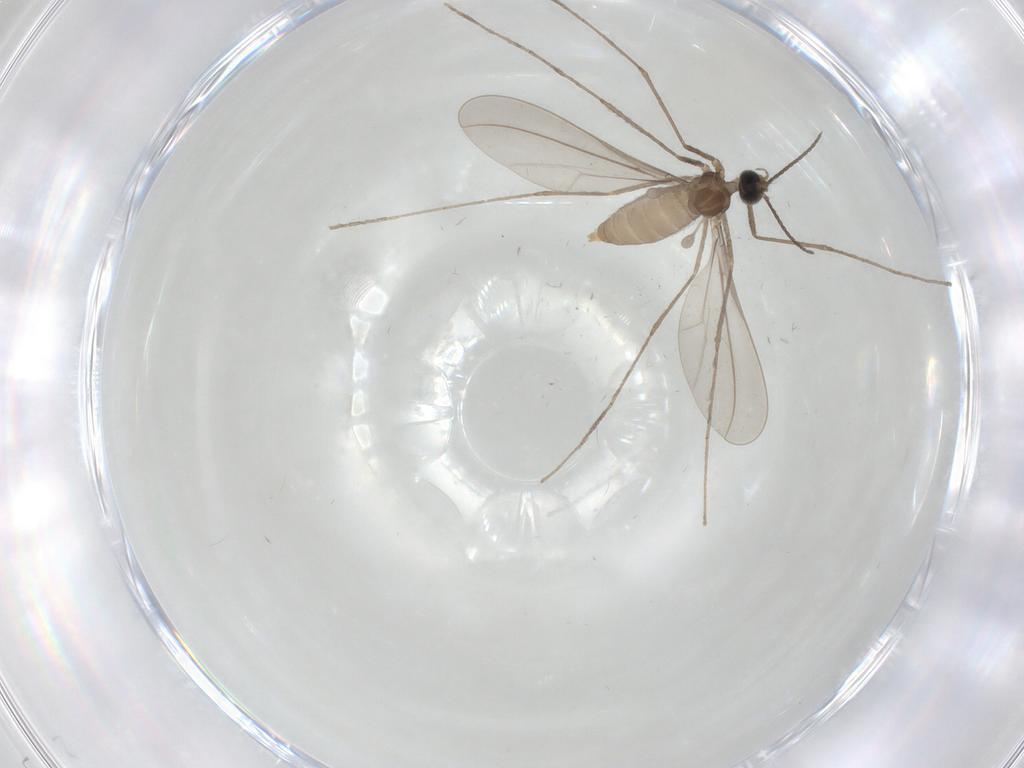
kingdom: Animalia
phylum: Arthropoda
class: Insecta
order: Diptera
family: Cecidomyiidae
